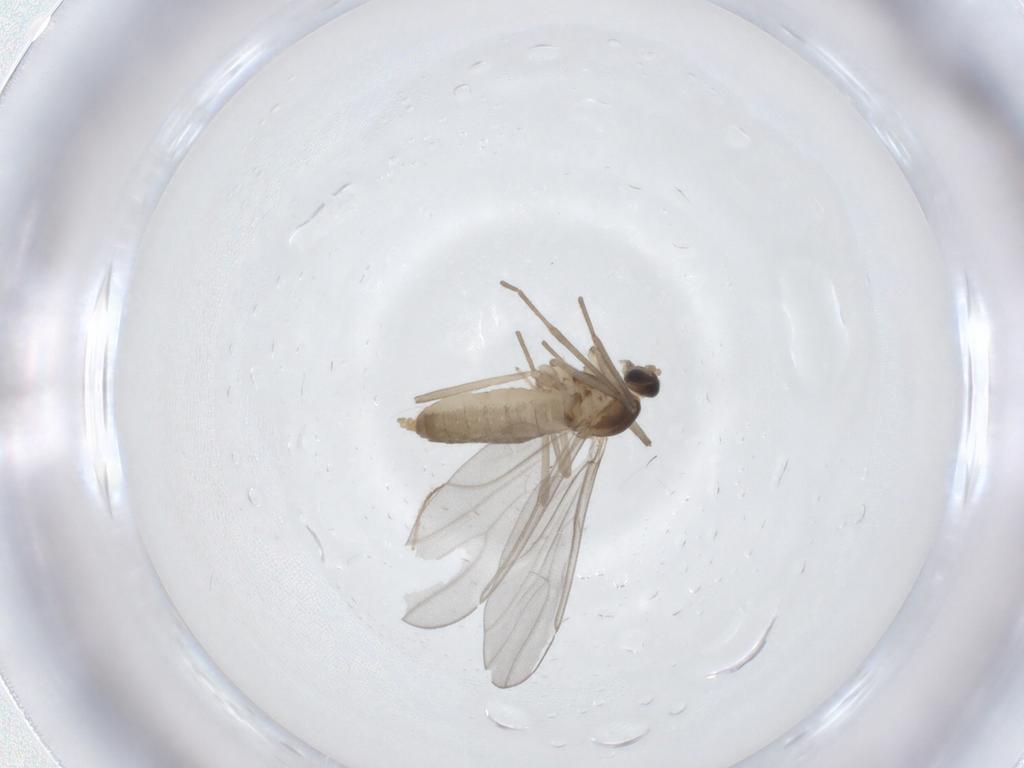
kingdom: Animalia
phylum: Arthropoda
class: Insecta
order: Diptera
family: Cecidomyiidae
